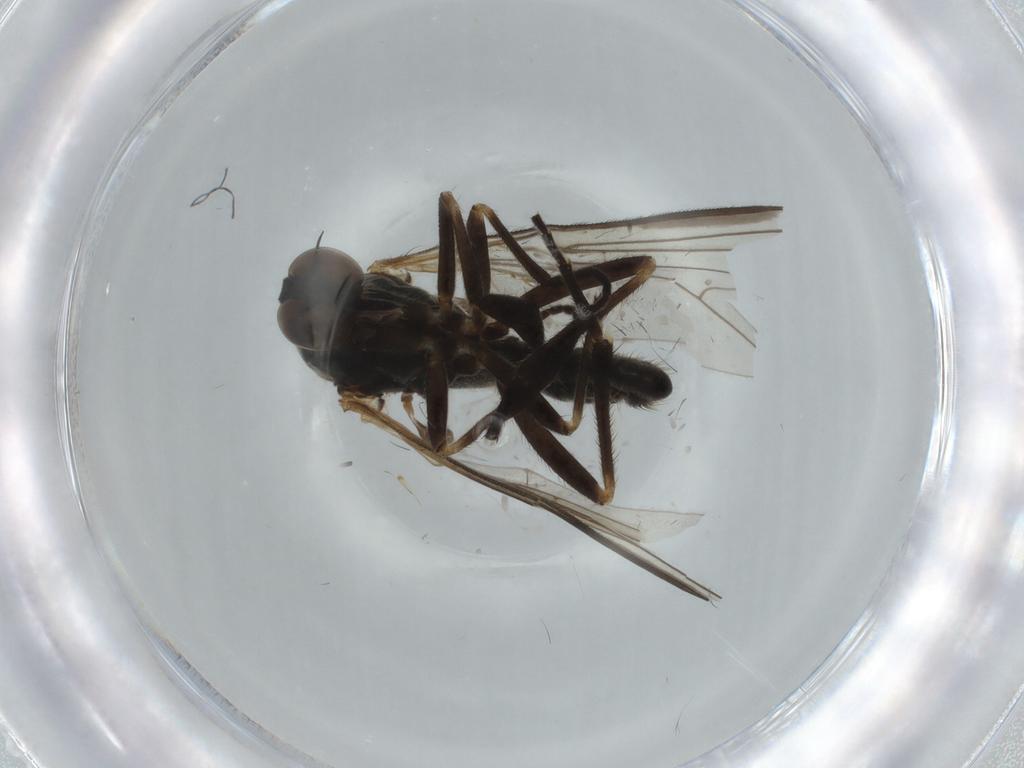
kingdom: Animalia
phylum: Arthropoda
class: Insecta
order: Diptera
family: Empididae
